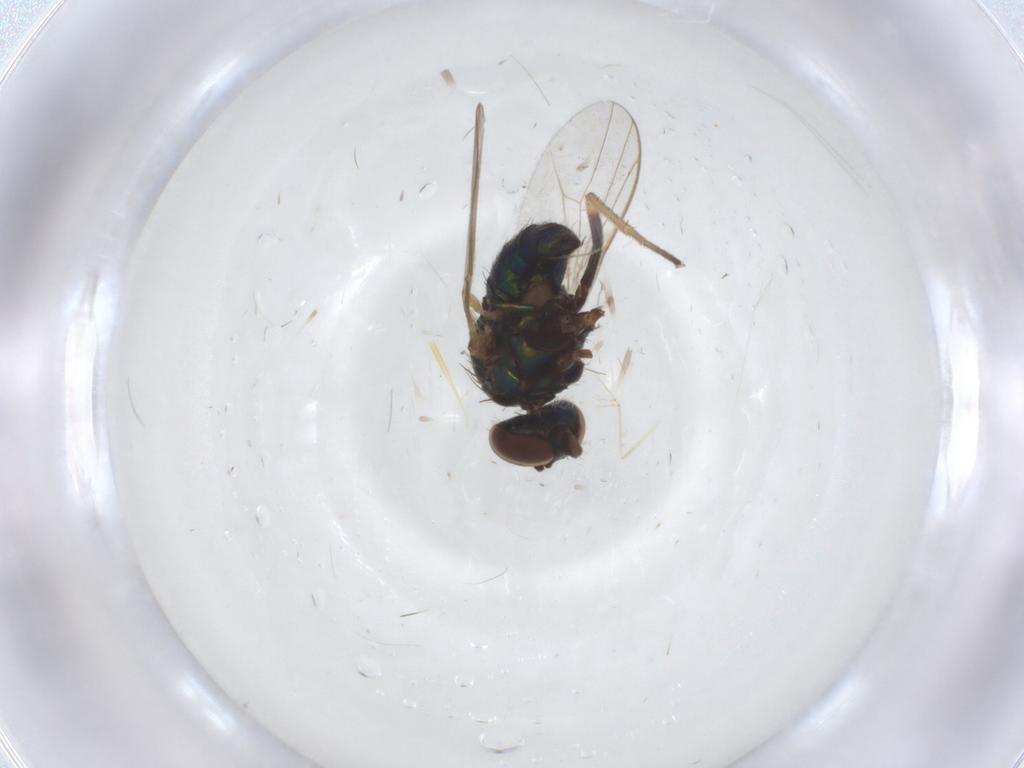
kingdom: Animalia
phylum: Arthropoda
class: Insecta
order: Diptera
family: Dolichopodidae
